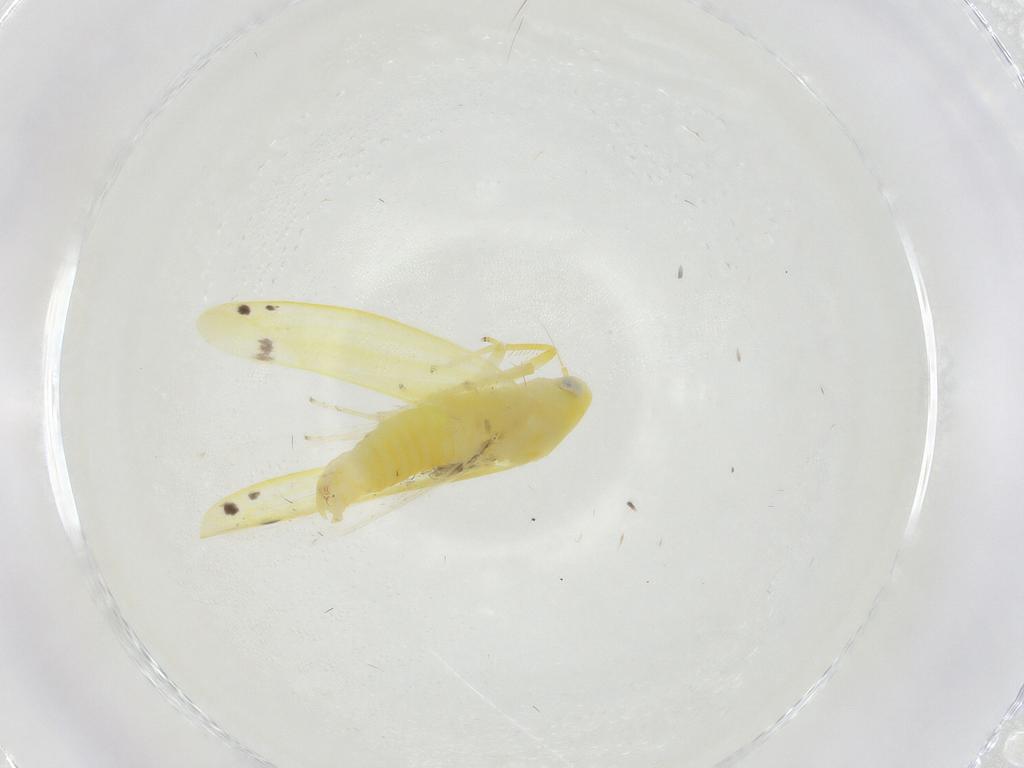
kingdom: Animalia
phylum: Arthropoda
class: Insecta
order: Hemiptera
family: Cicadellidae
